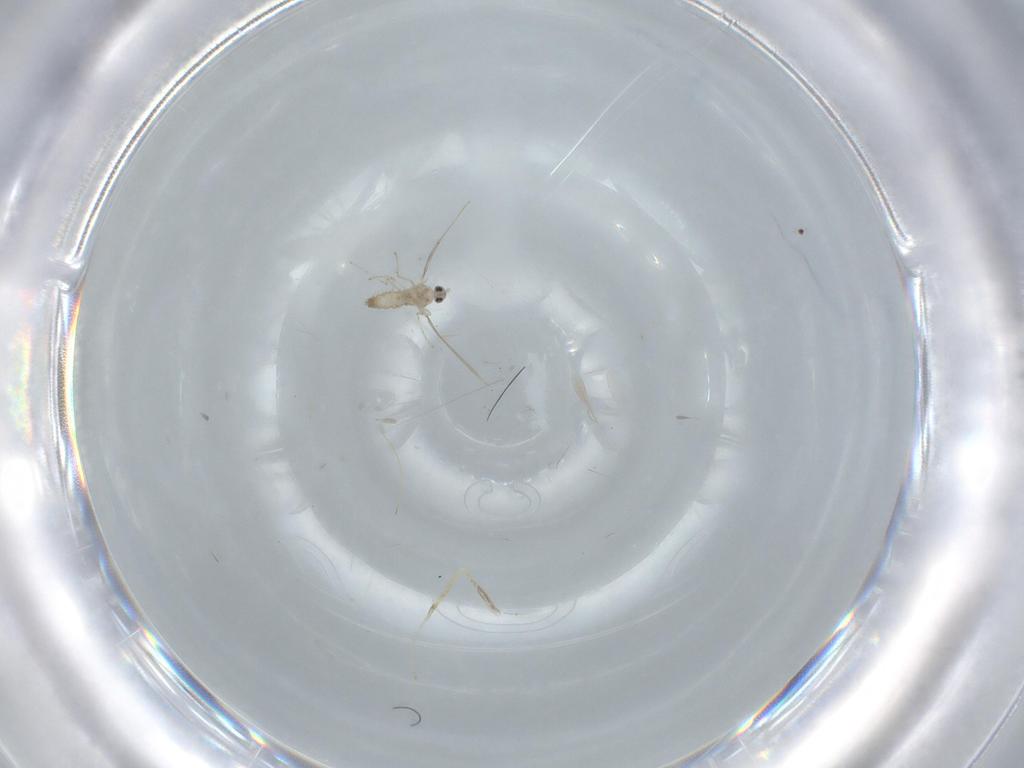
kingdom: Animalia
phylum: Arthropoda
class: Insecta
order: Diptera
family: Cecidomyiidae
